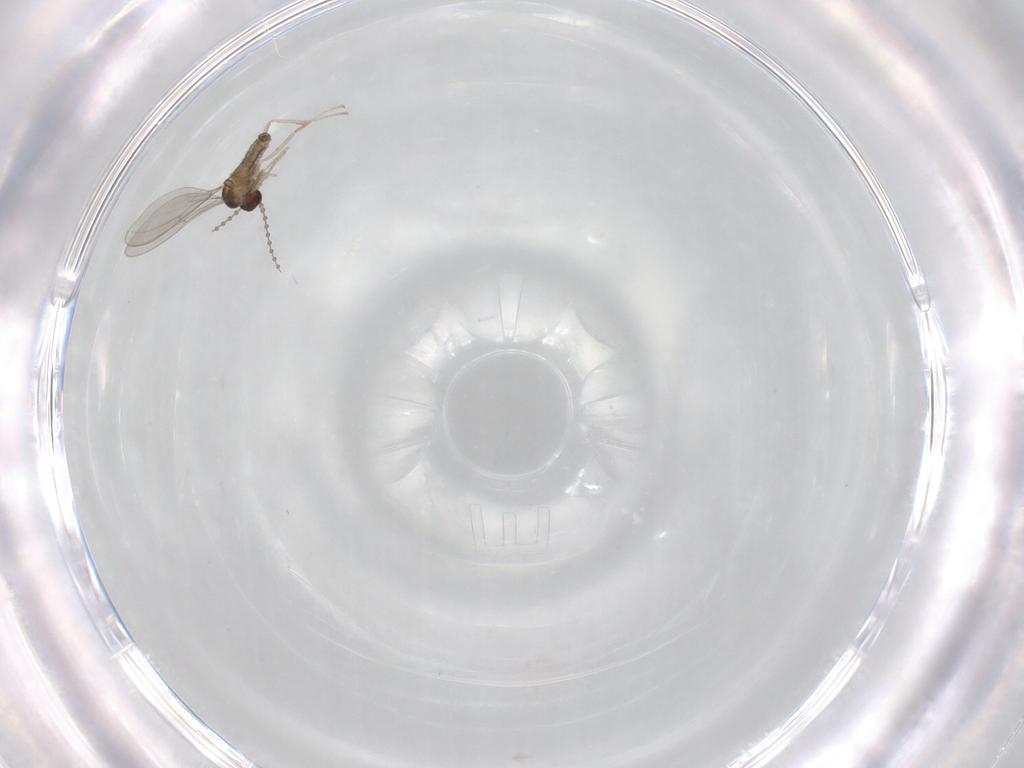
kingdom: Animalia
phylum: Arthropoda
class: Insecta
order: Diptera
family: Cecidomyiidae
